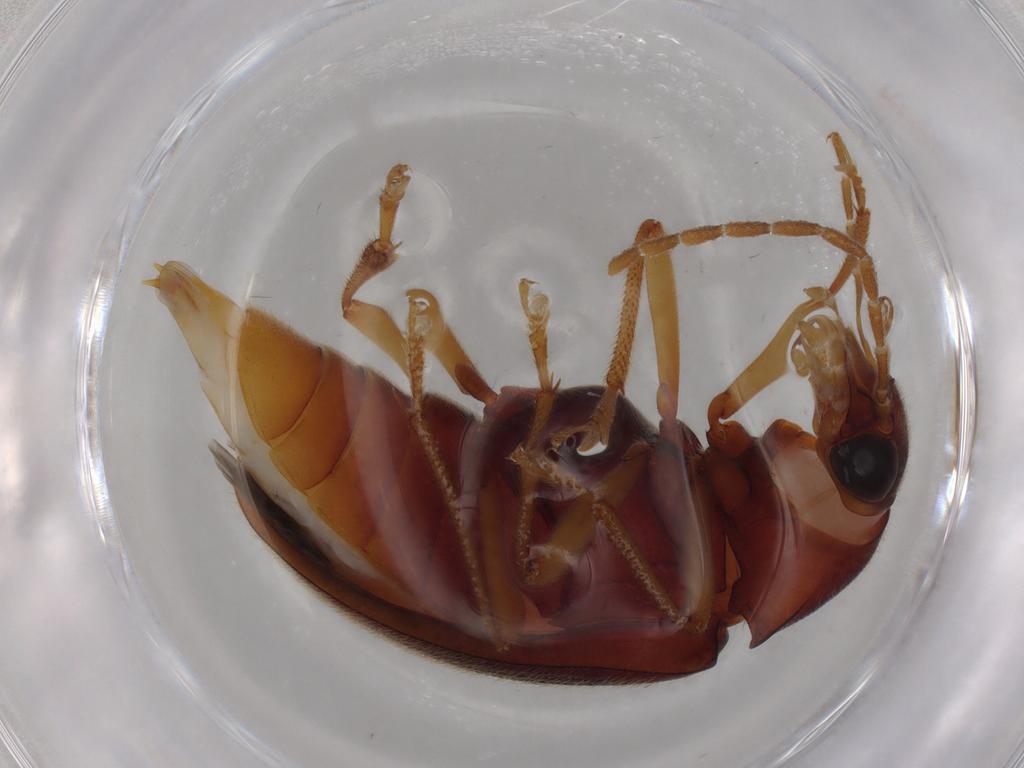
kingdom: Animalia
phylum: Arthropoda
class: Insecta
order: Coleoptera
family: Ptilodactylidae
